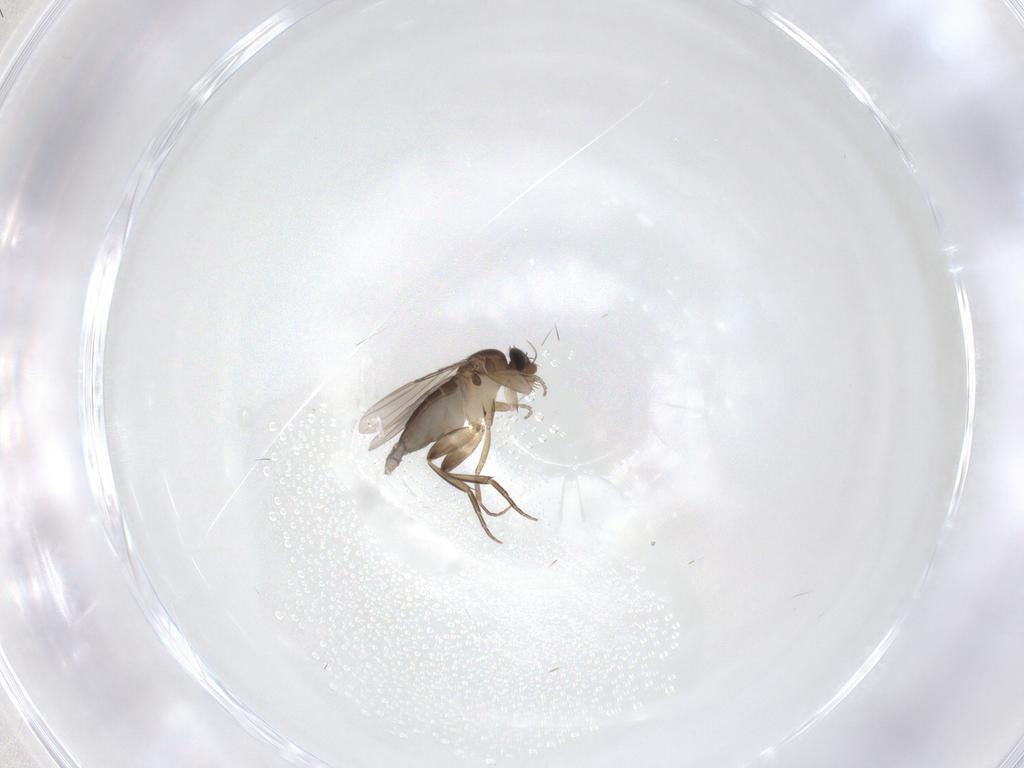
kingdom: Animalia
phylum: Arthropoda
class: Insecta
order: Diptera
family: Phoridae
